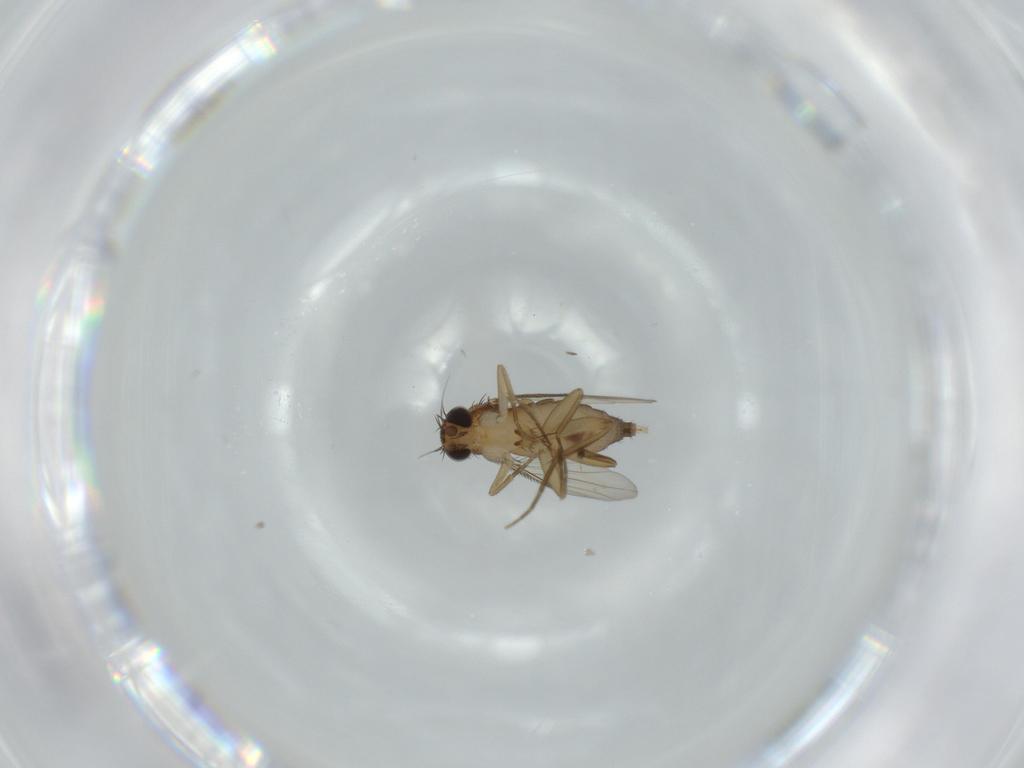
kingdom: Animalia
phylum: Arthropoda
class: Insecta
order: Diptera
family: Phoridae
